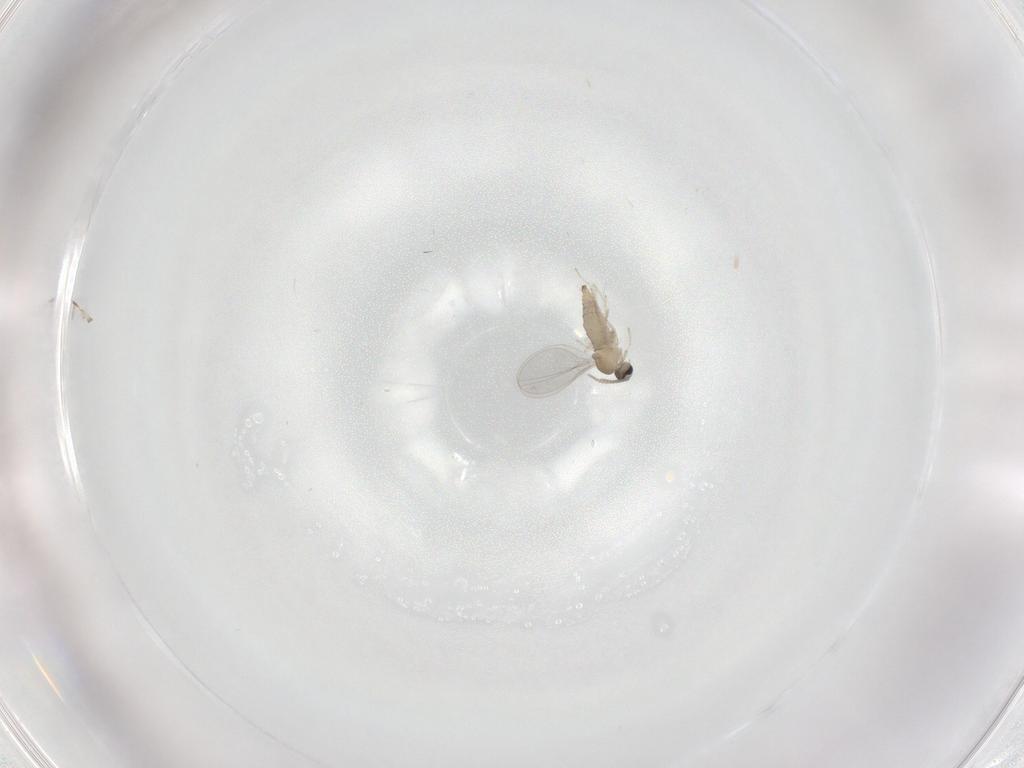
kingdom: Animalia
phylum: Arthropoda
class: Insecta
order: Diptera
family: Cecidomyiidae
